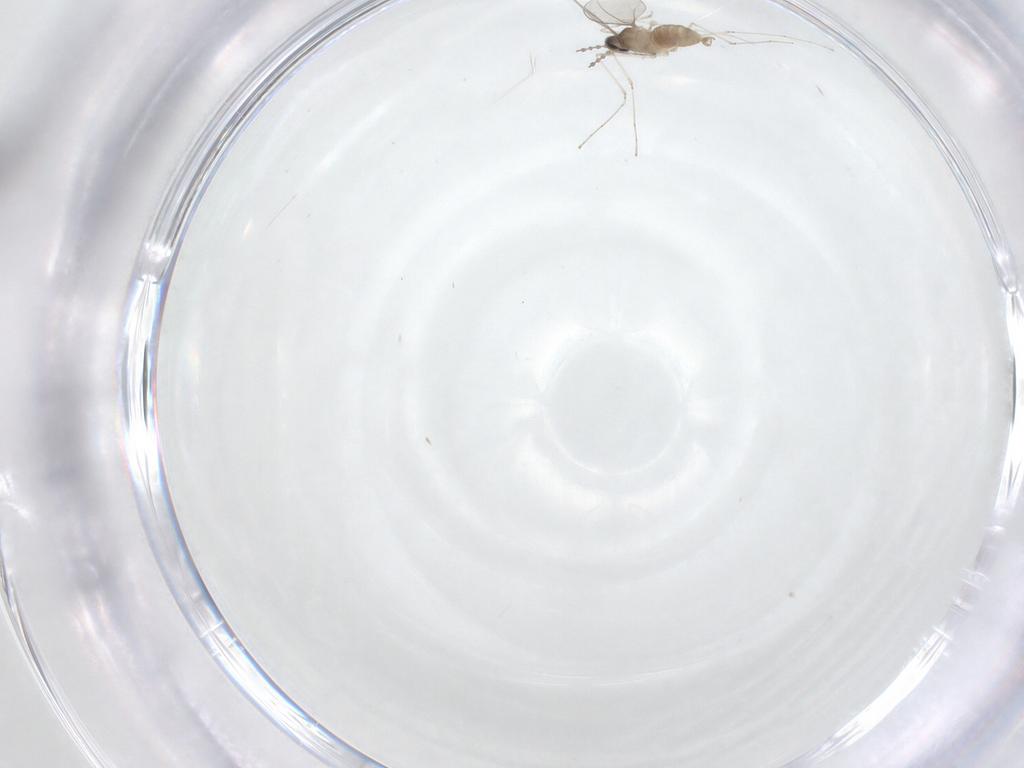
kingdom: Animalia
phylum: Arthropoda
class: Insecta
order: Diptera
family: Cecidomyiidae
